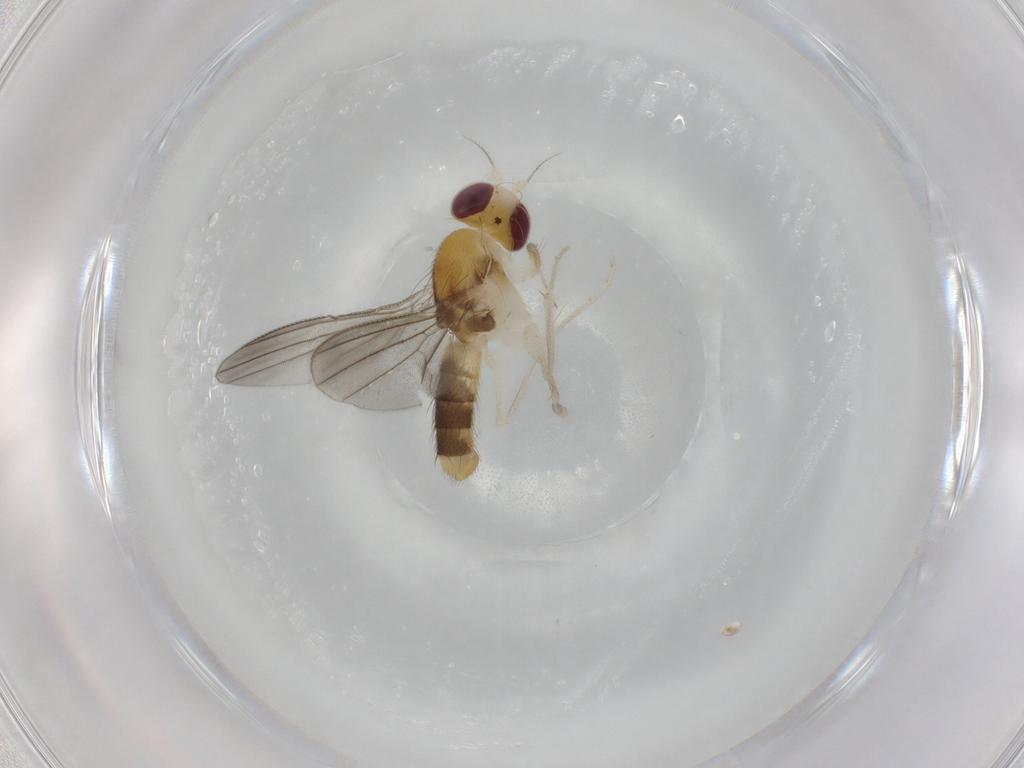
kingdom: Animalia
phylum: Arthropoda
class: Insecta
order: Diptera
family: Clusiidae
